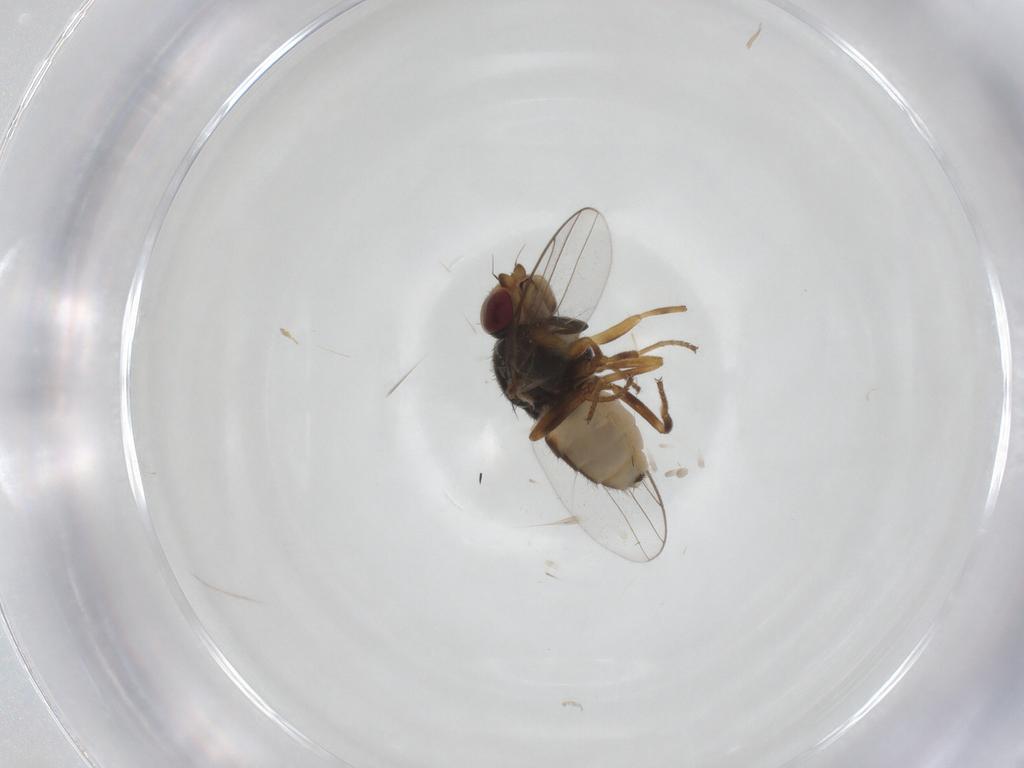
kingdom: Animalia
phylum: Arthropoda
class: Insecta
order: Diptera
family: Chloropidae
